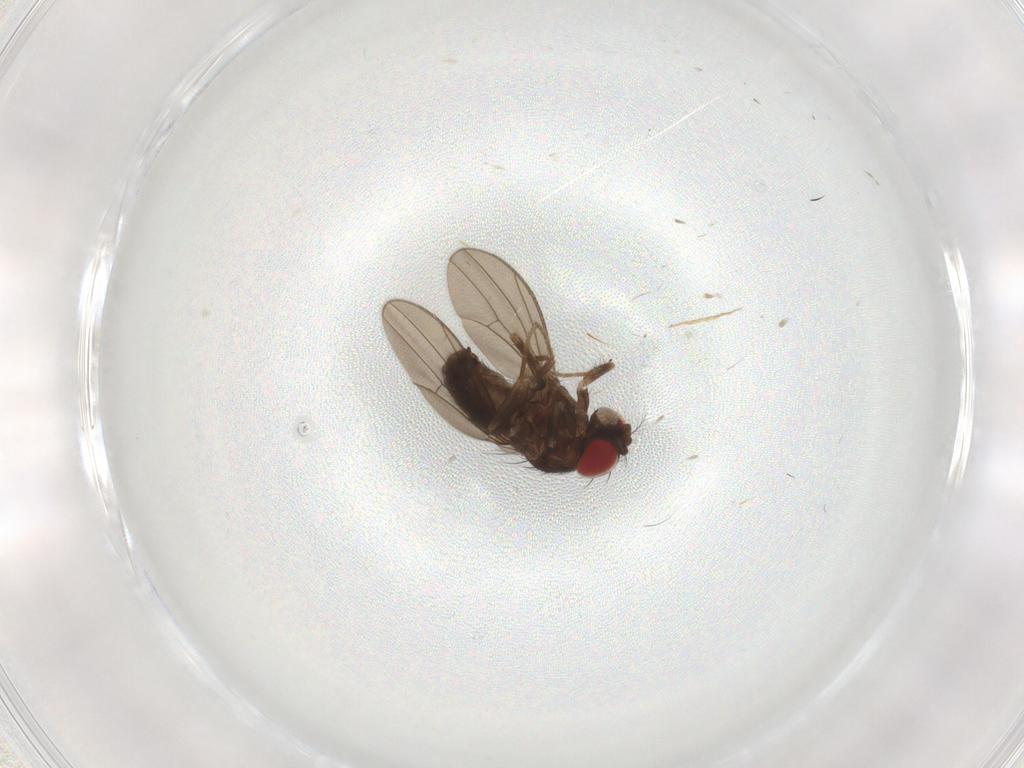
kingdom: Animalia
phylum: Arthropoda
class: Insecta
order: Diptera
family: Drosophilidae
